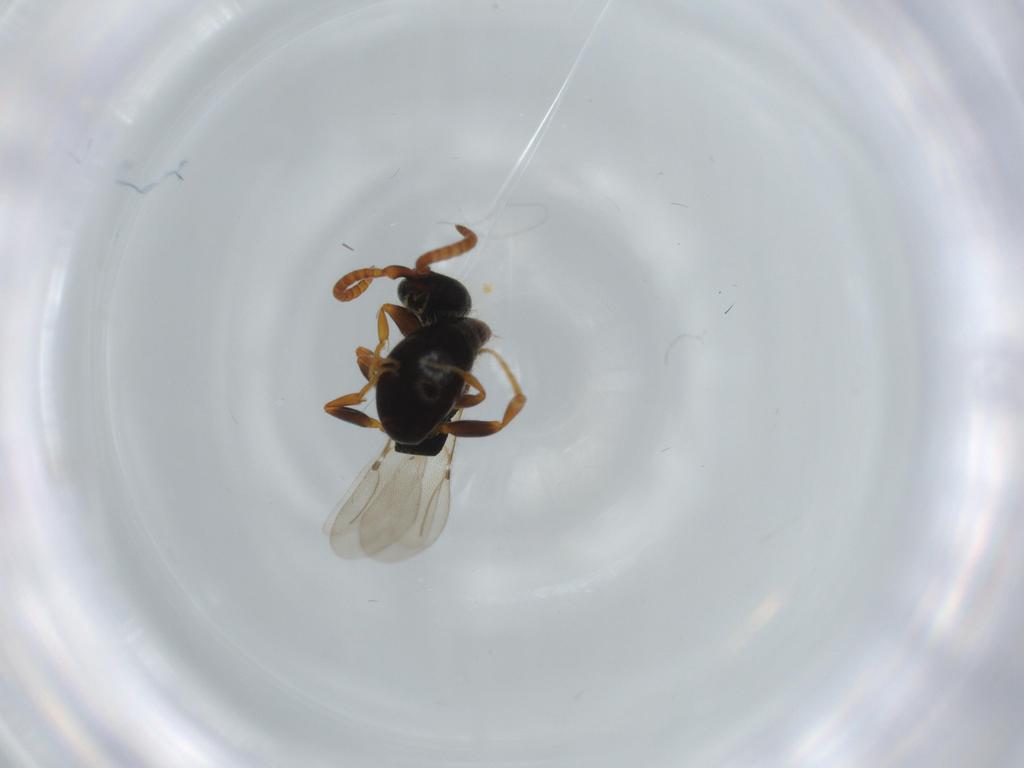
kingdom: Animalia
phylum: Arthropoda
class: Insecta
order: Hymenoptera
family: Bethylidae
